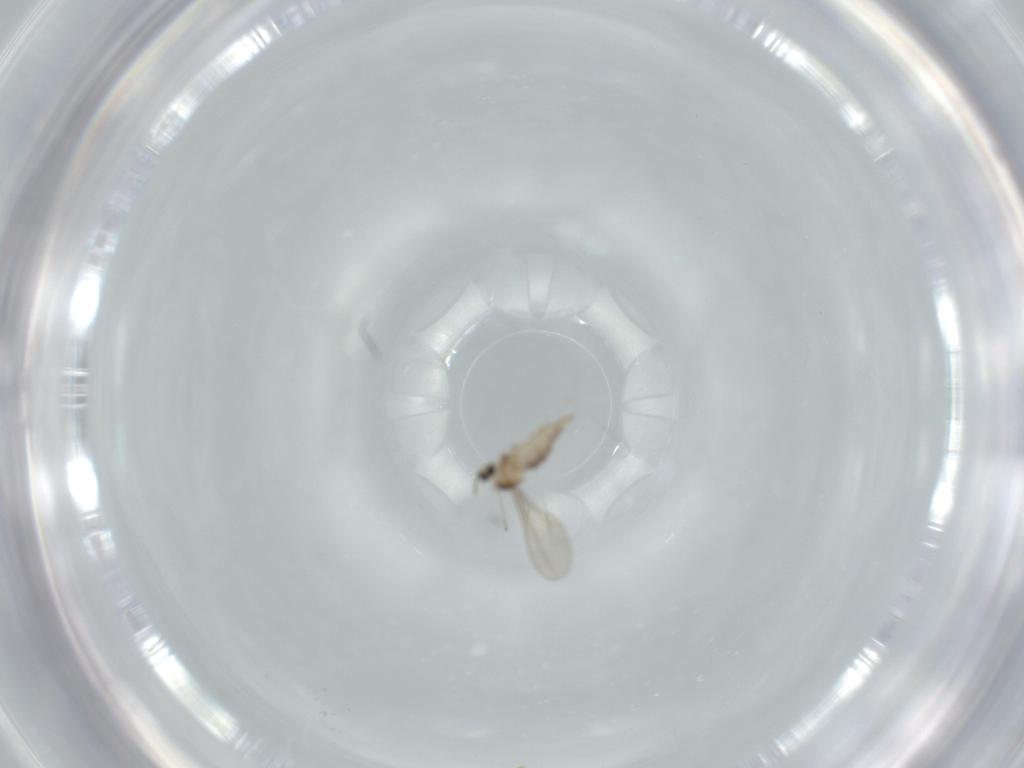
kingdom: Animalia
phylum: Arthropoda
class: Insecta
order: Diptera
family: Cecidomyiidae
